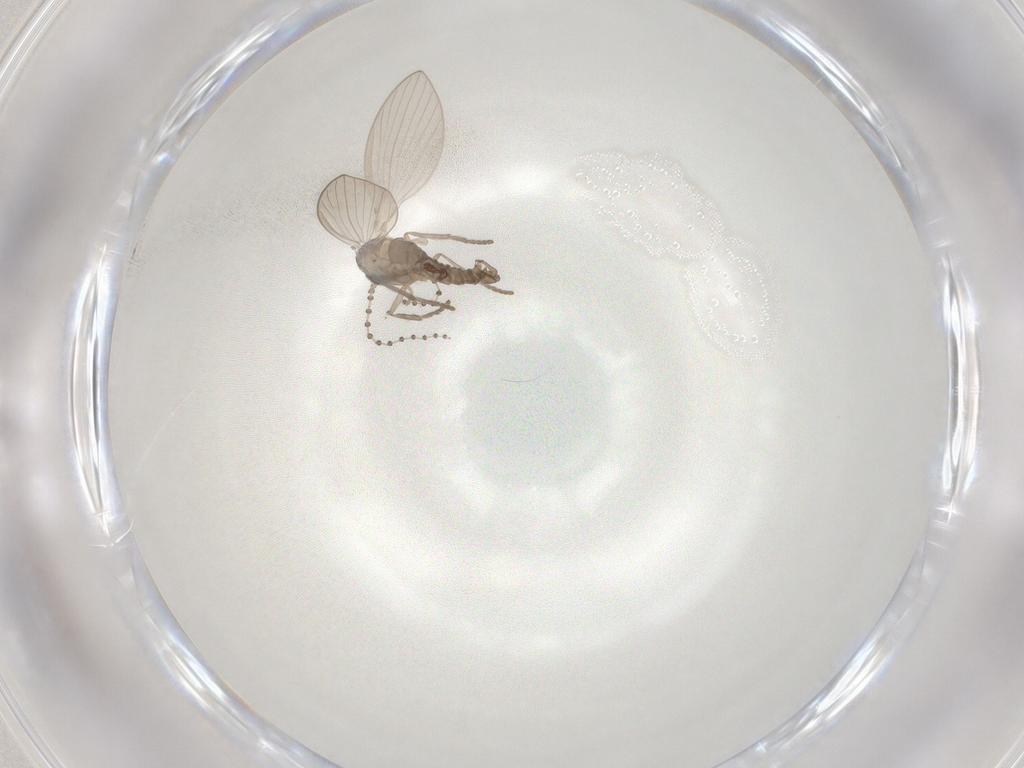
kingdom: Animalia
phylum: Arthropoda
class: Insecta
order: Diptera
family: Psychodidae
